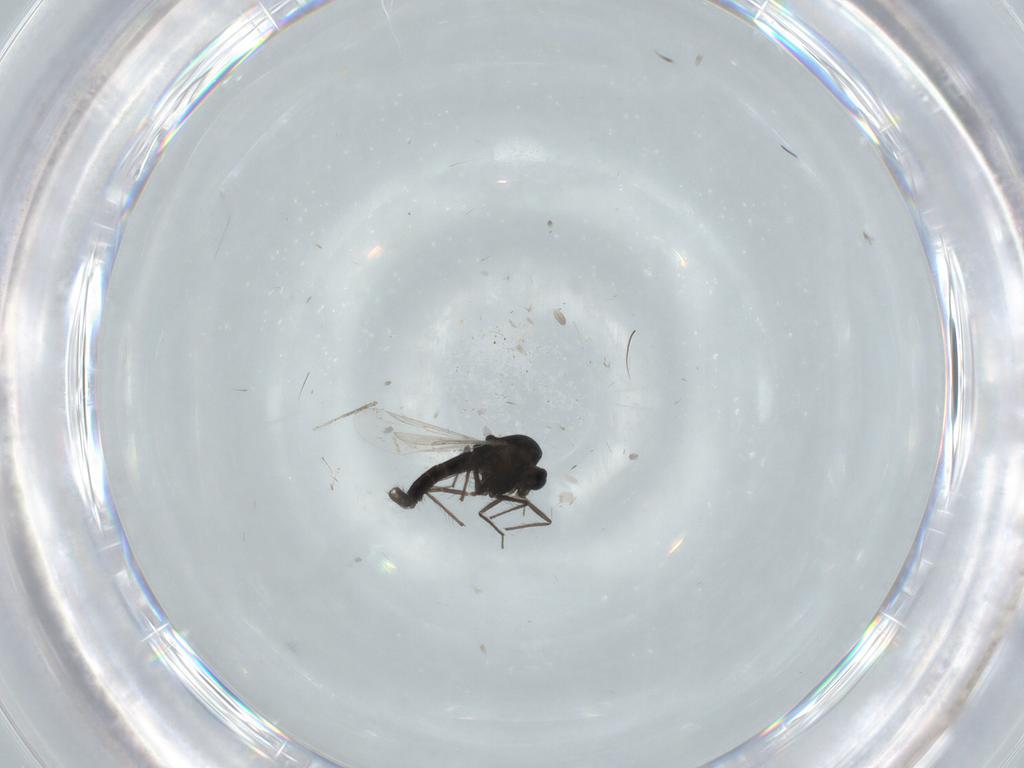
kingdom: Animalia
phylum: Arthropoda
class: Insecta
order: Diptera
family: Chironomidae
